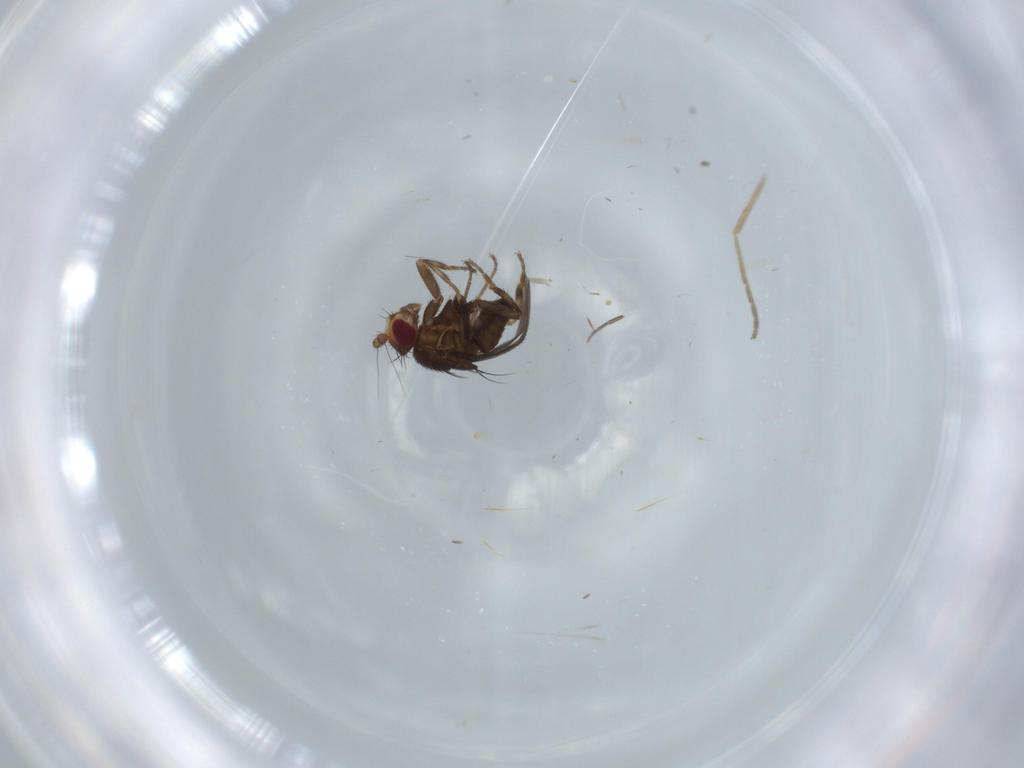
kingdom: Animalia
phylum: Arthropoda
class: Insecta
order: Diptera
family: Cecidomyiidae
